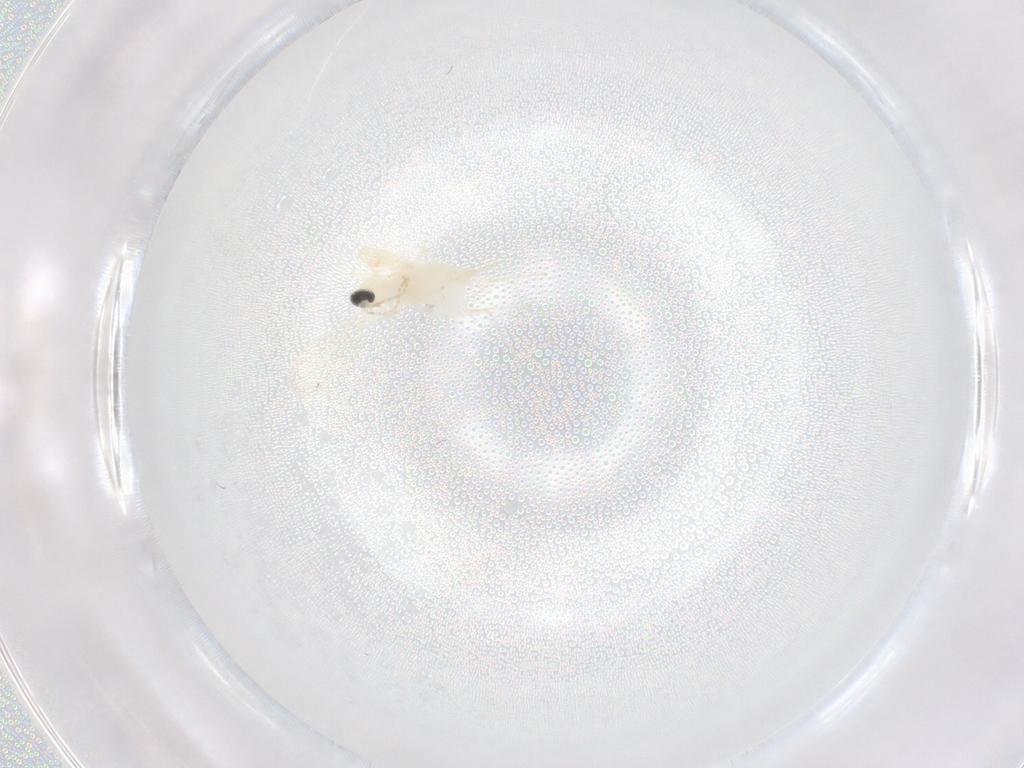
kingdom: Animalia
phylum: Arthropoda
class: Insecta
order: Diptera
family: Cecidomyiidae
